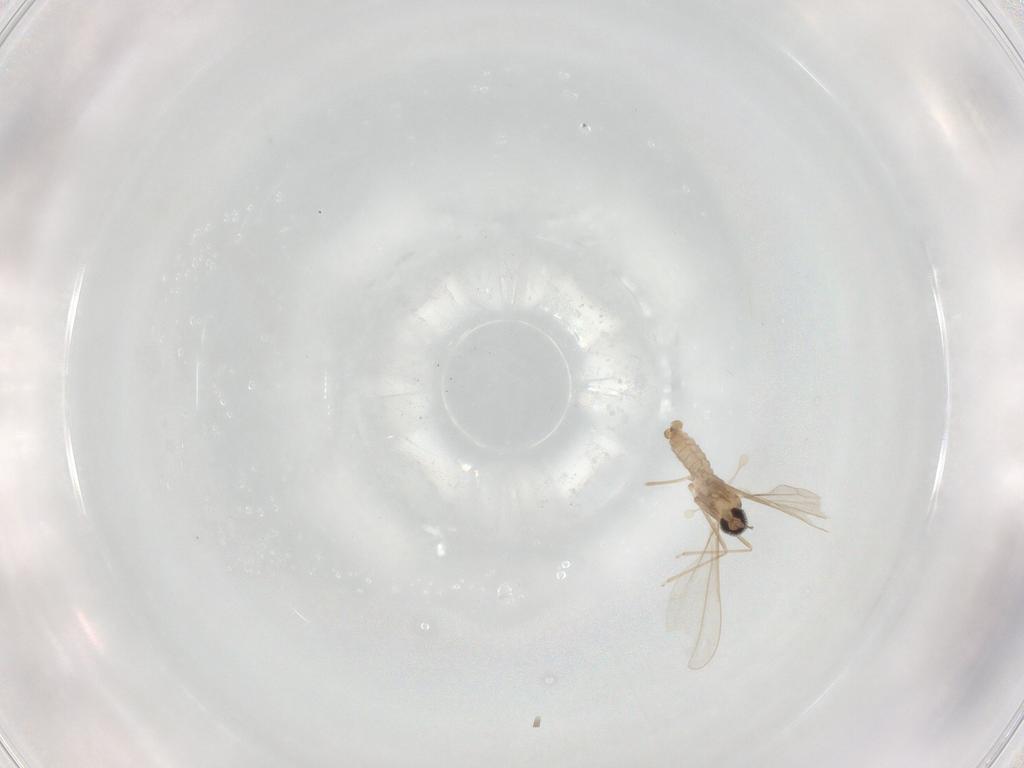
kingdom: Animalia
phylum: Arthropoda
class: Insecta
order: Diptera
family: Cecidomyiidae
